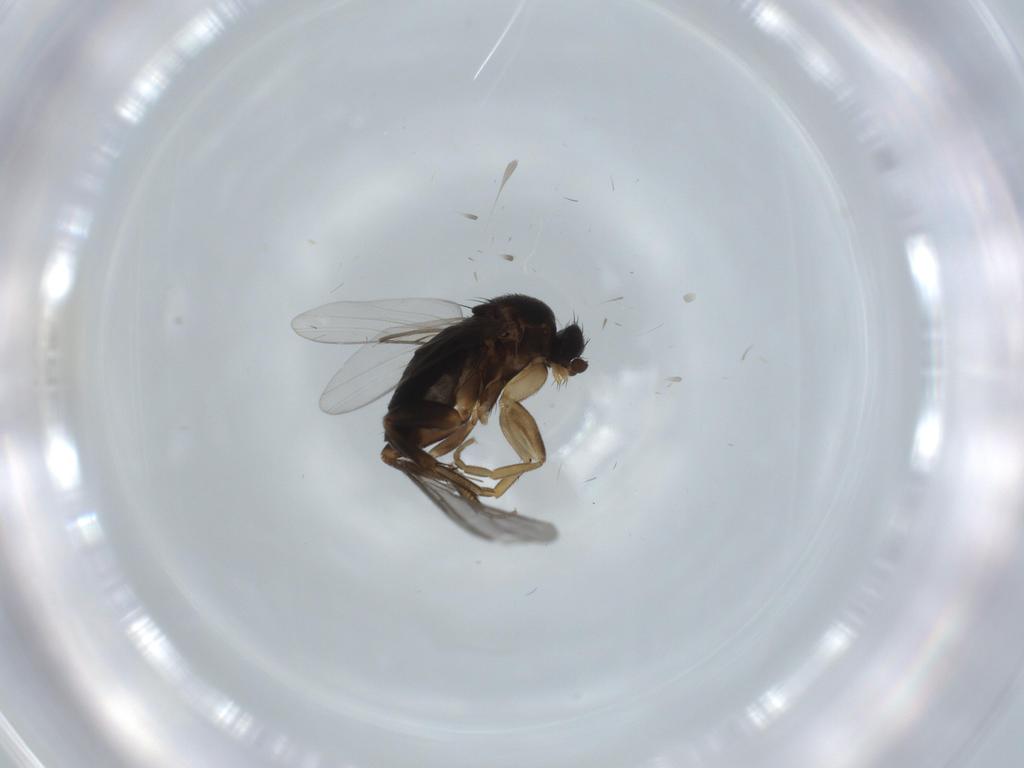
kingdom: Animalia
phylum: Arthropoda
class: Insecta
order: Diptera
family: Phoridae
